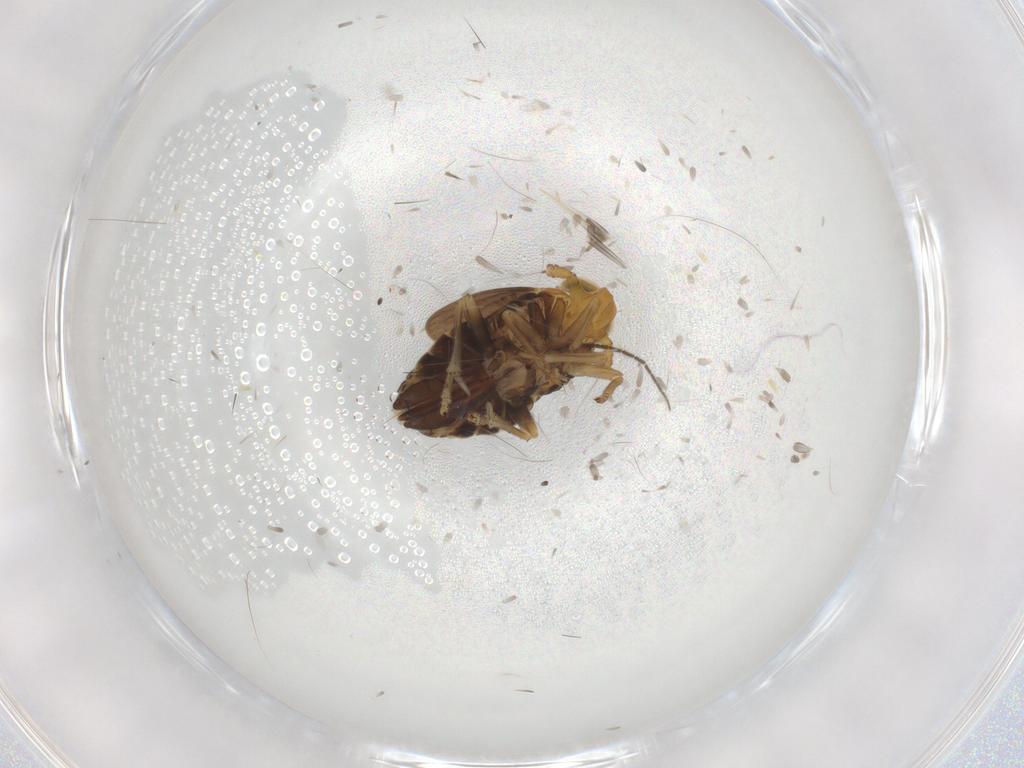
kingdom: Animalia
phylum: Arthropoda
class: Insecta
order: Hemiptera
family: Delphacidae
